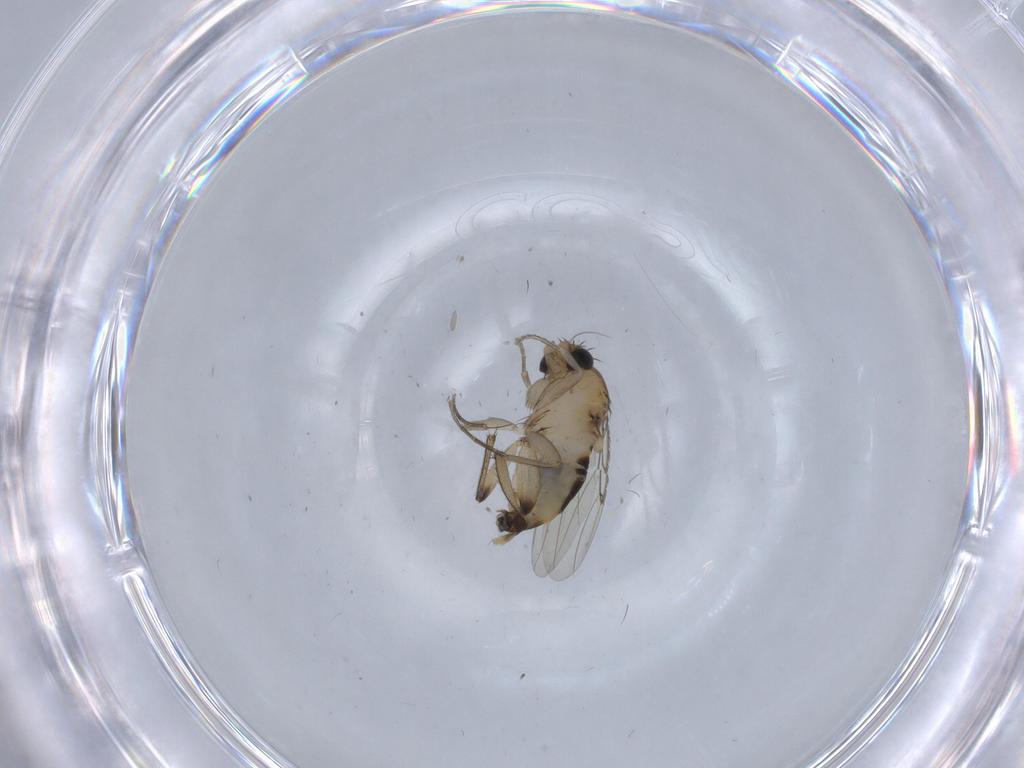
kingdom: Animalia
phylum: Arthropoda
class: Insecta
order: Diptera
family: Phoridae
